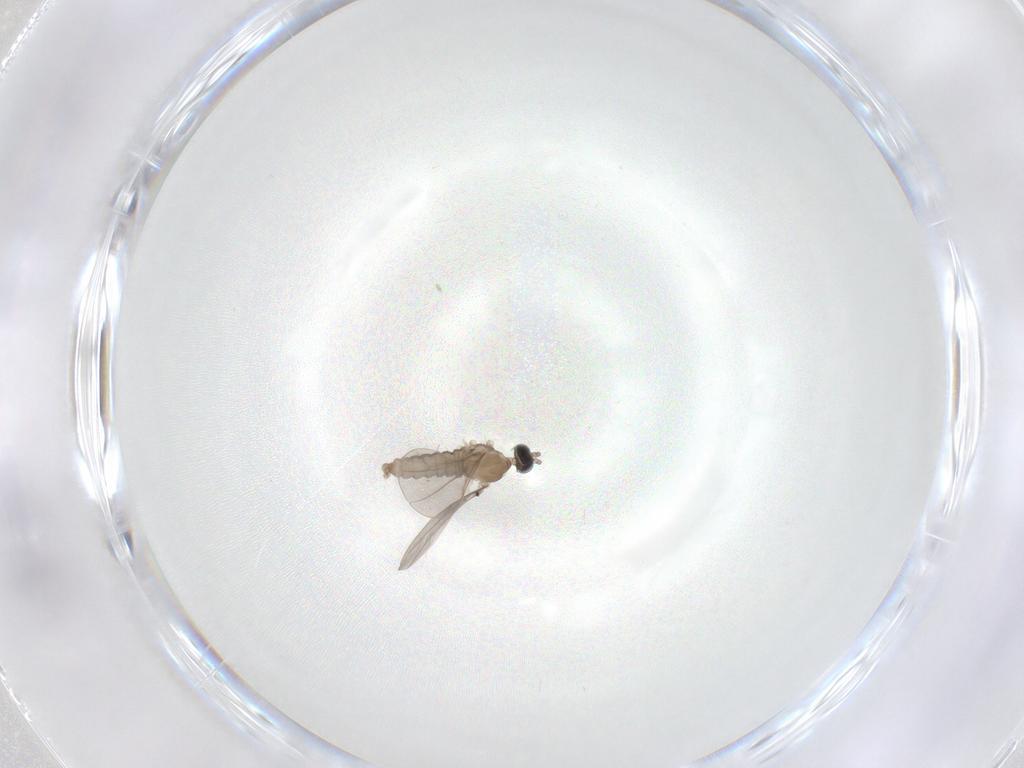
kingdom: Animalia
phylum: Arthropoda
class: Insecta
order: Diptera
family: Cecidomyiidae
